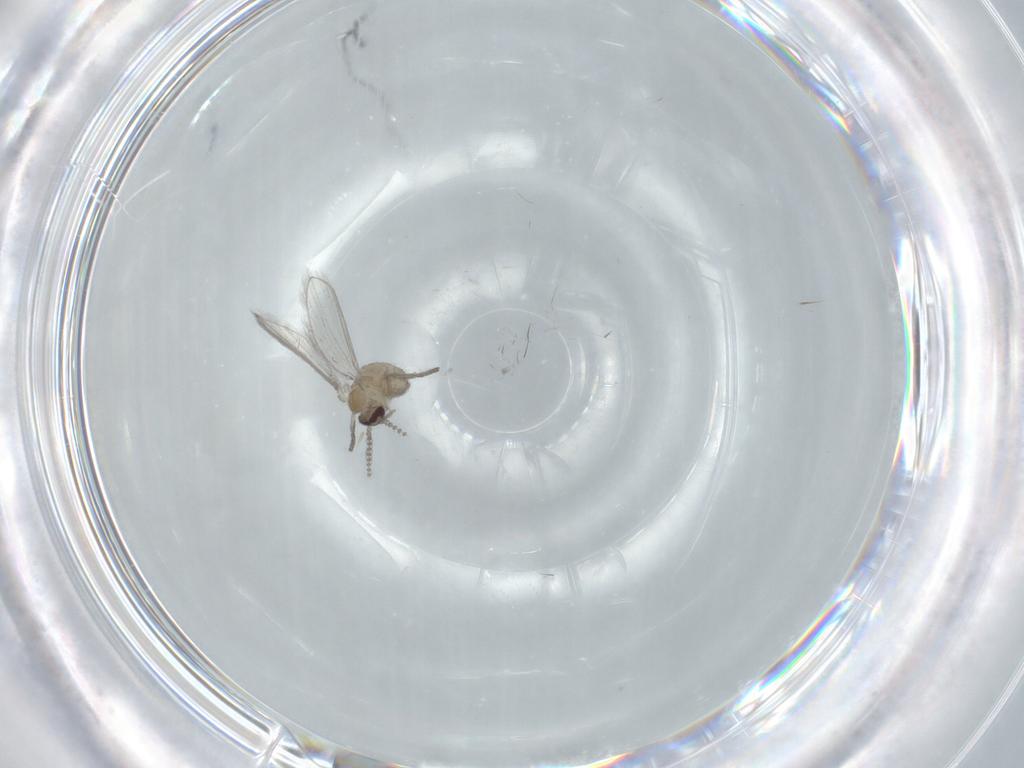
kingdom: Animalia
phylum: Arthropoda
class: Insecta
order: Diptera
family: Psychodidae
